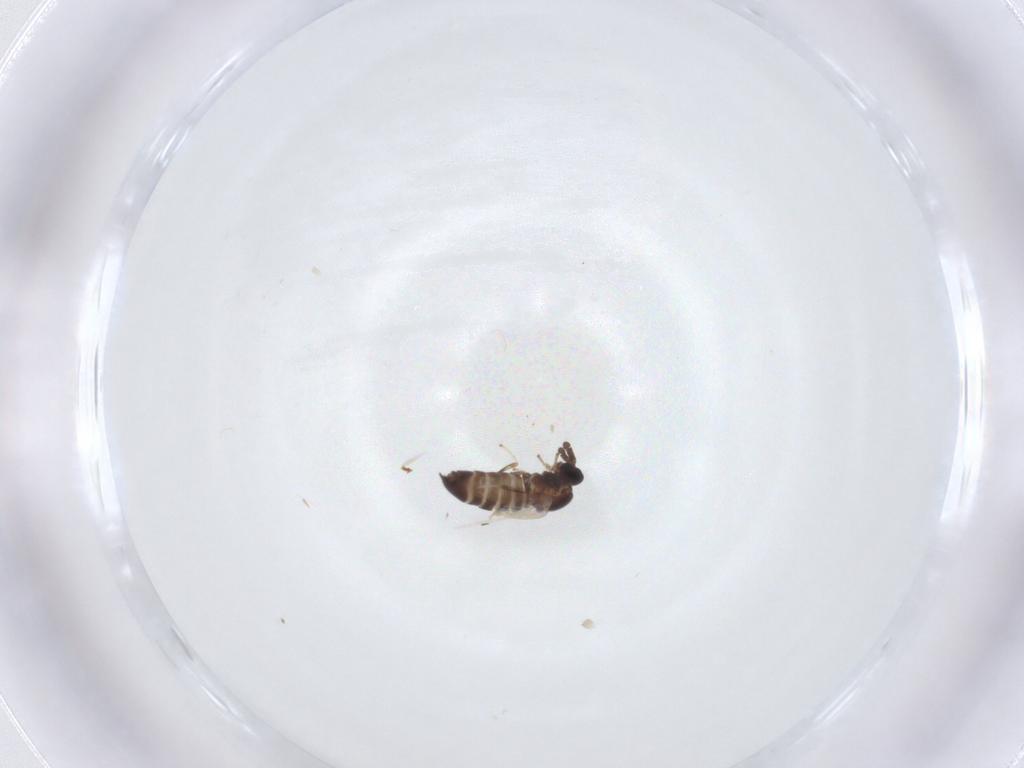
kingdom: Animalia
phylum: Arthropoda
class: Insecta
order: Diptera
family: Scatopsidae
